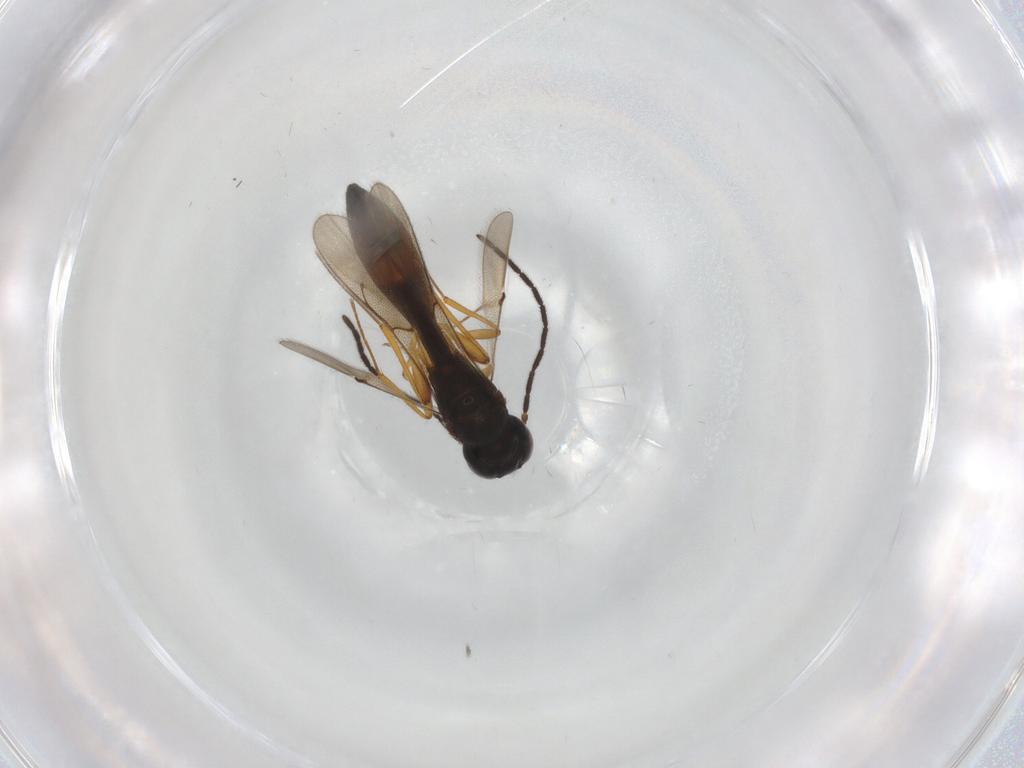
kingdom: Animalia
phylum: Arthropoda
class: Insecta
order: Hymenoptera
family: Scelionidae
